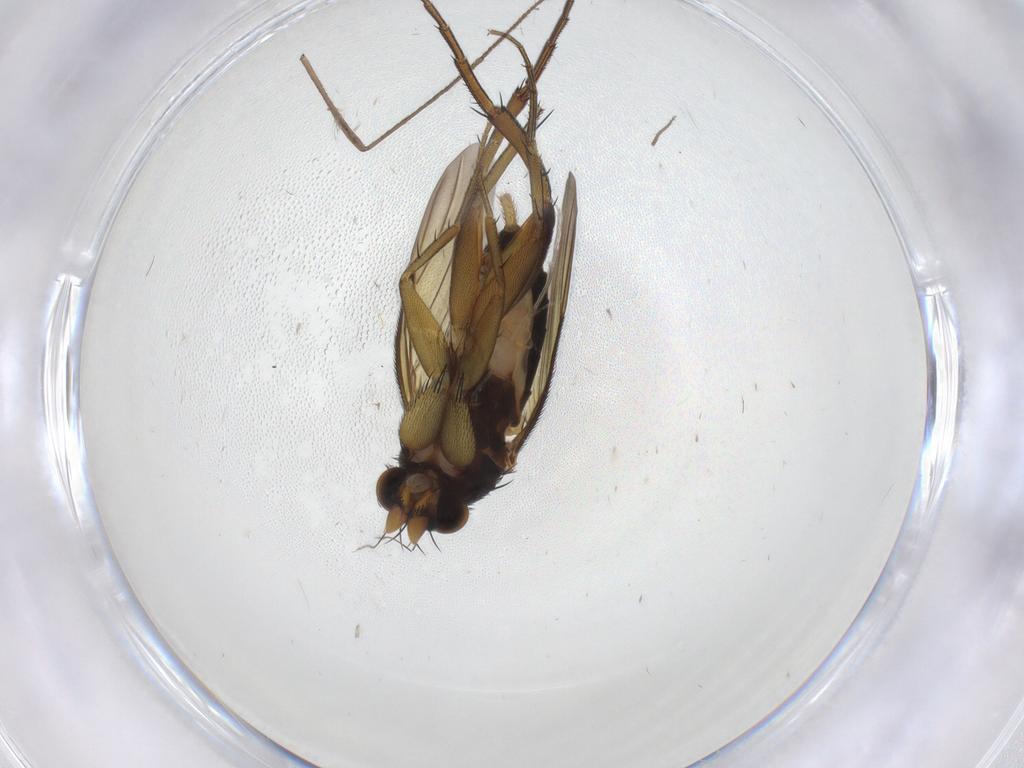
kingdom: Animalia
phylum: Arthropoda
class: Insecta
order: Diptera
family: Phoridae
